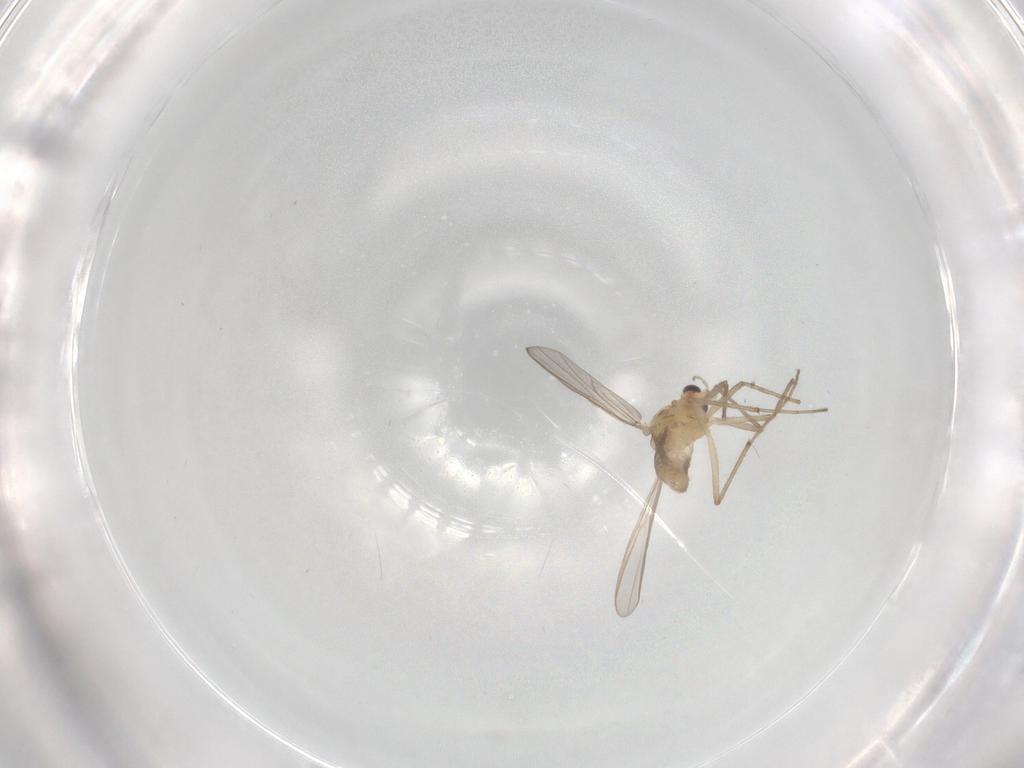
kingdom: Animalia
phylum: Arthropoda
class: Insecta
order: Diptera
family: Chironomidae
